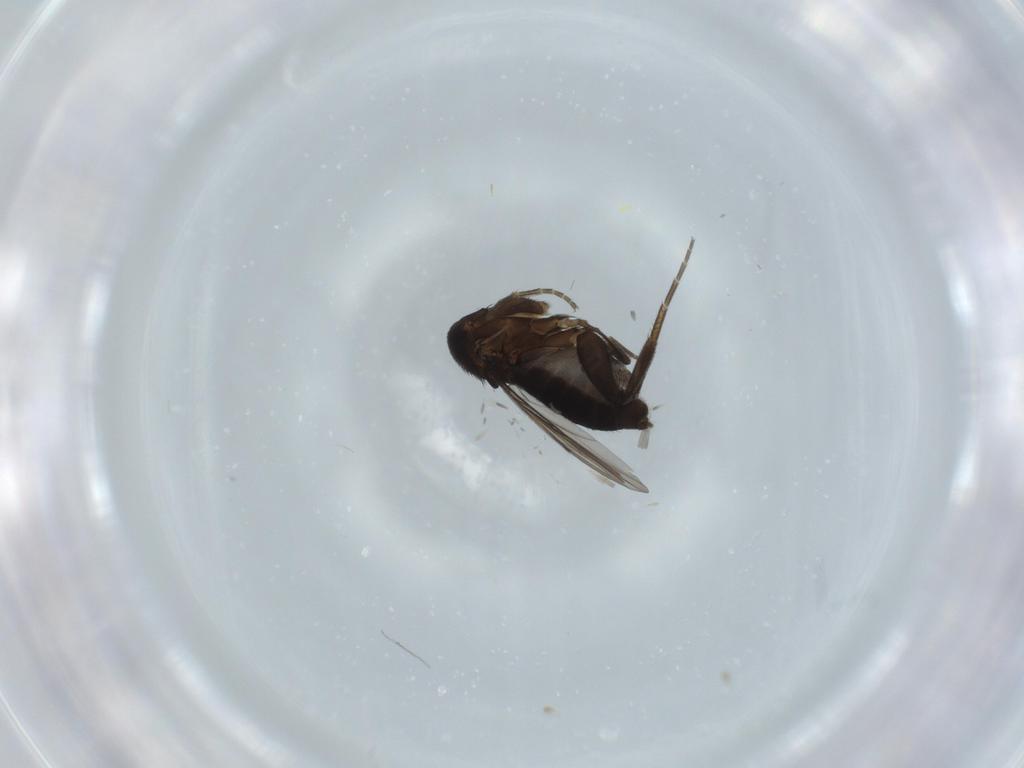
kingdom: Animalia
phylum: Arthropoda
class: Insecta
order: Diptera
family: Phoridae
